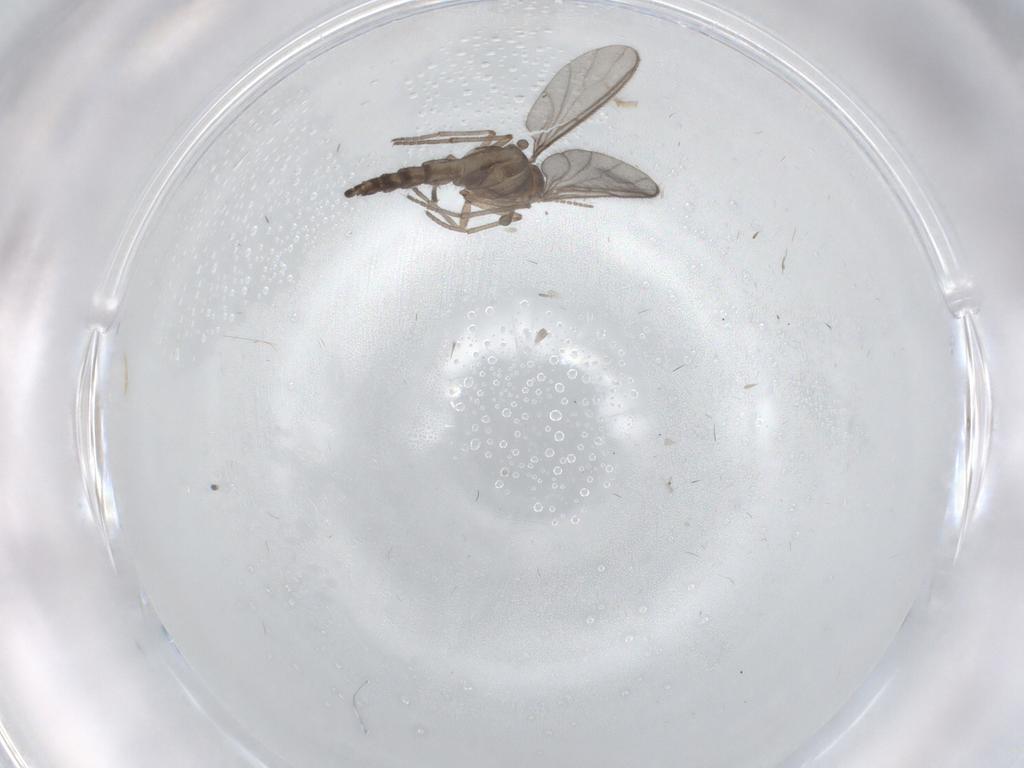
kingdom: Animalia
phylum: Arthropoda
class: Insecta
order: Diptera
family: Sciaridae
